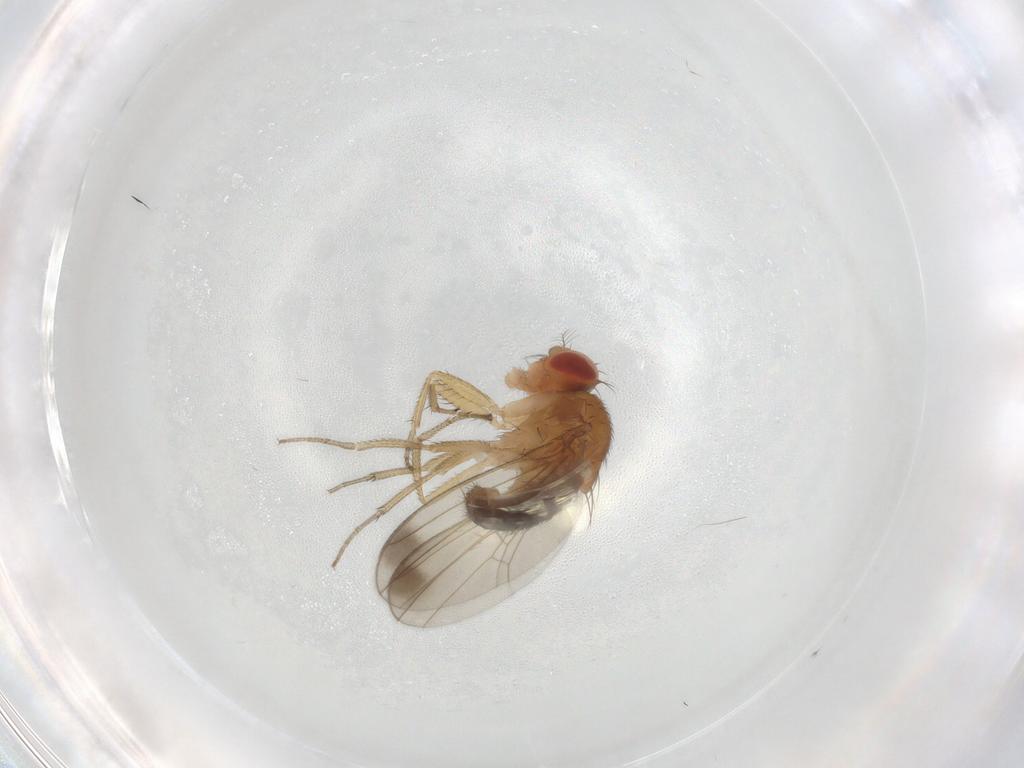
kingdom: Animalia
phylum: Arthropoda
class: Insecta
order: Diptera
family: Drosophilidae
